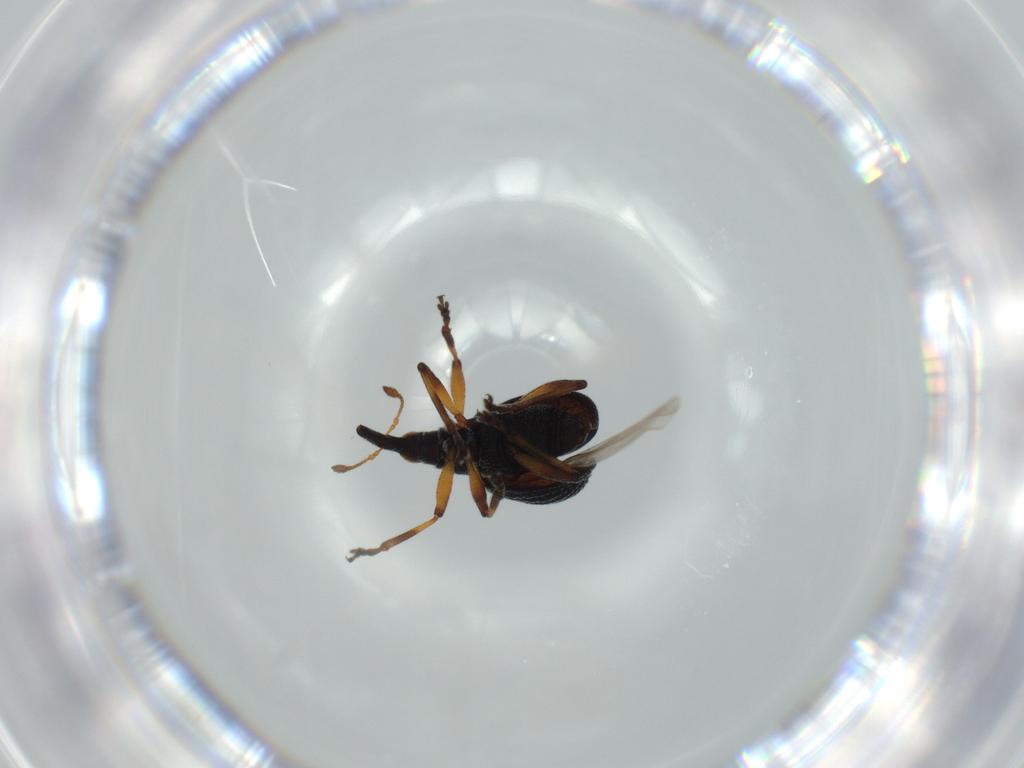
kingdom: Animalia
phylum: Arthropoda
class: Insecta
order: Coleoptera
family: Brentidae
